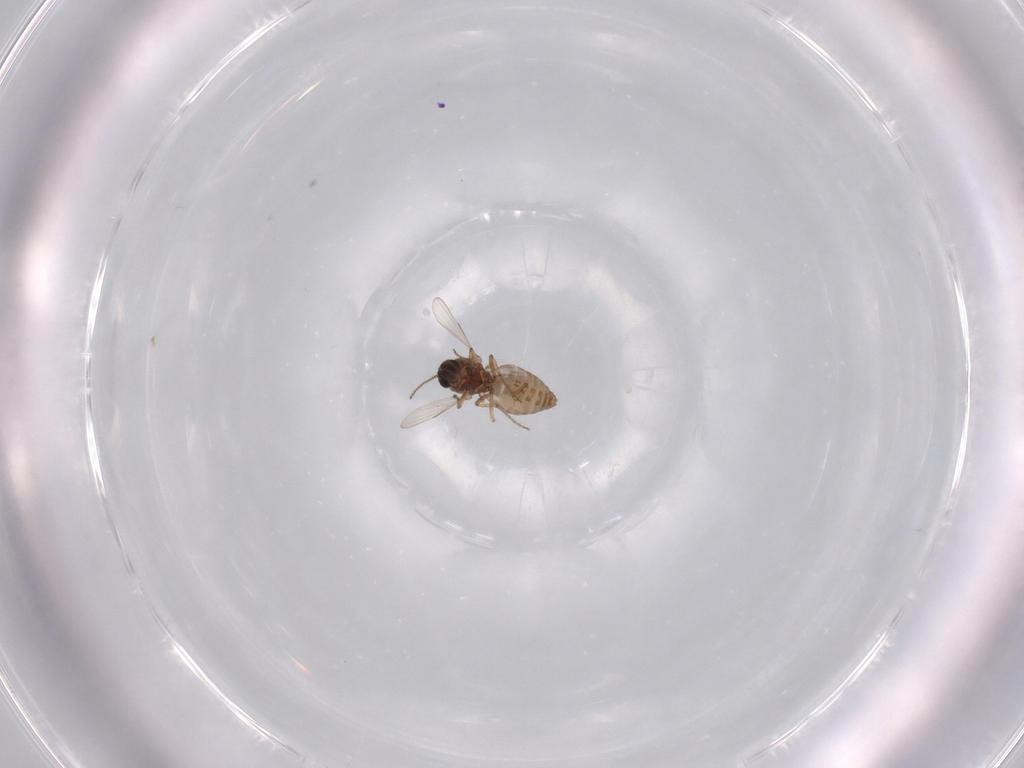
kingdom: Animalia
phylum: Arthropoda
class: Insecta
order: Diptera
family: Ceratopogonidae
